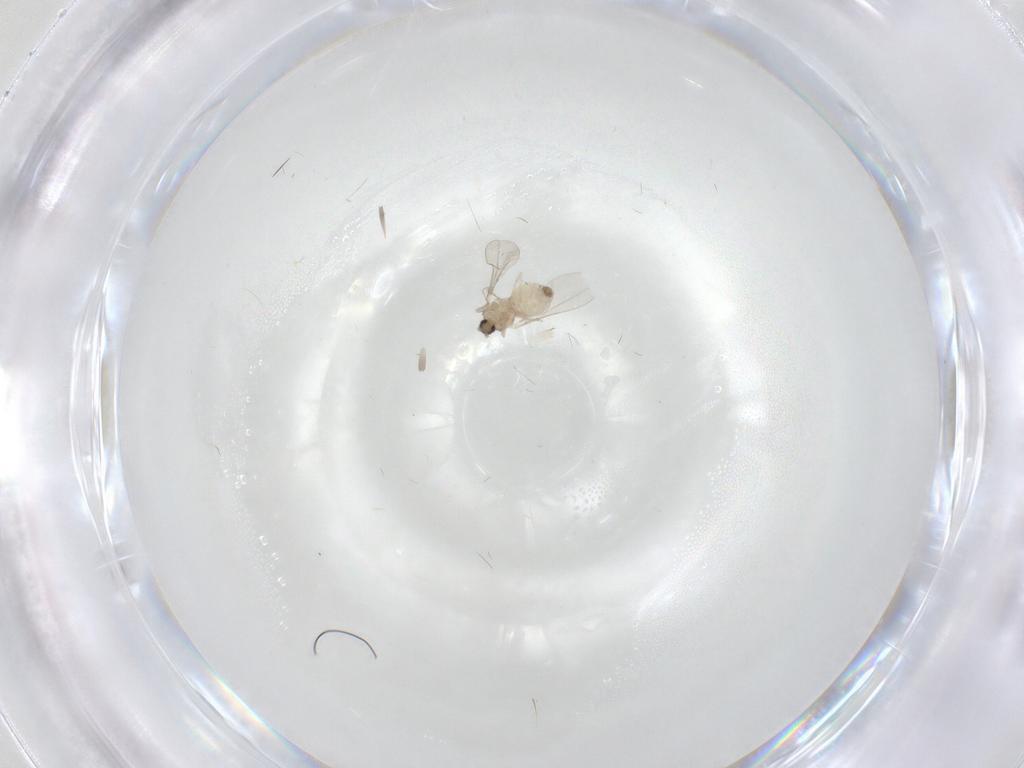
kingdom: Animalia
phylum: Arthropoda
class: Insecta
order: Diptera
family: Cecidomyiidae
